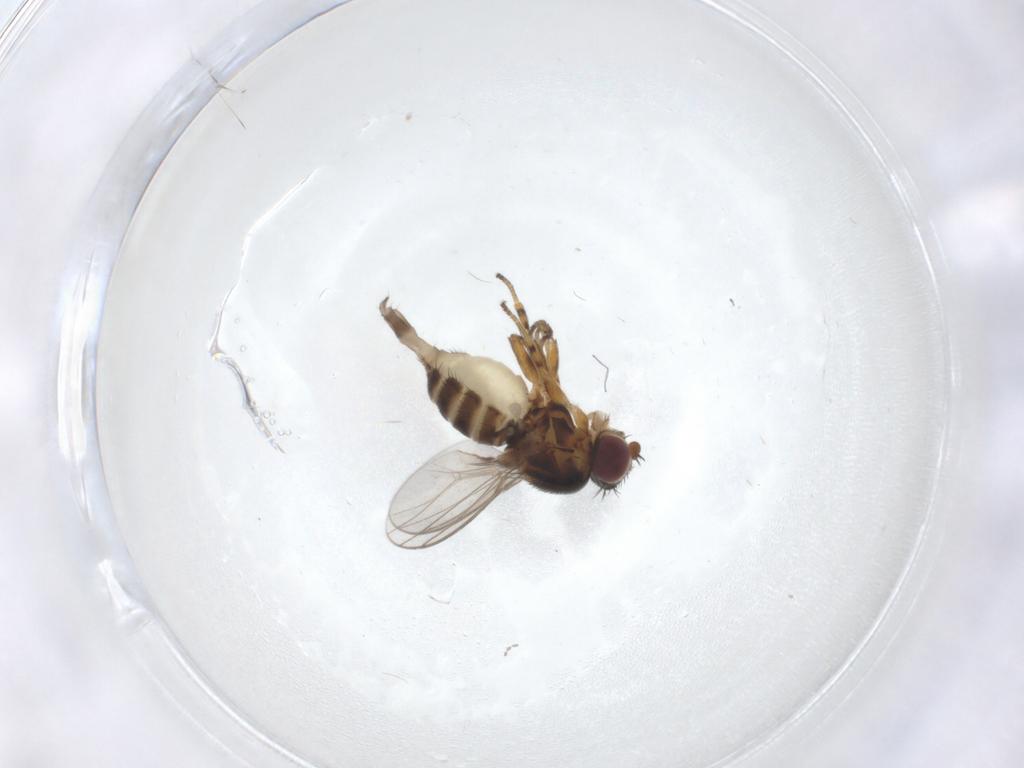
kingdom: Animalia
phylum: Arthropoda
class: Insecta
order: Diptera
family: Chloropidae
